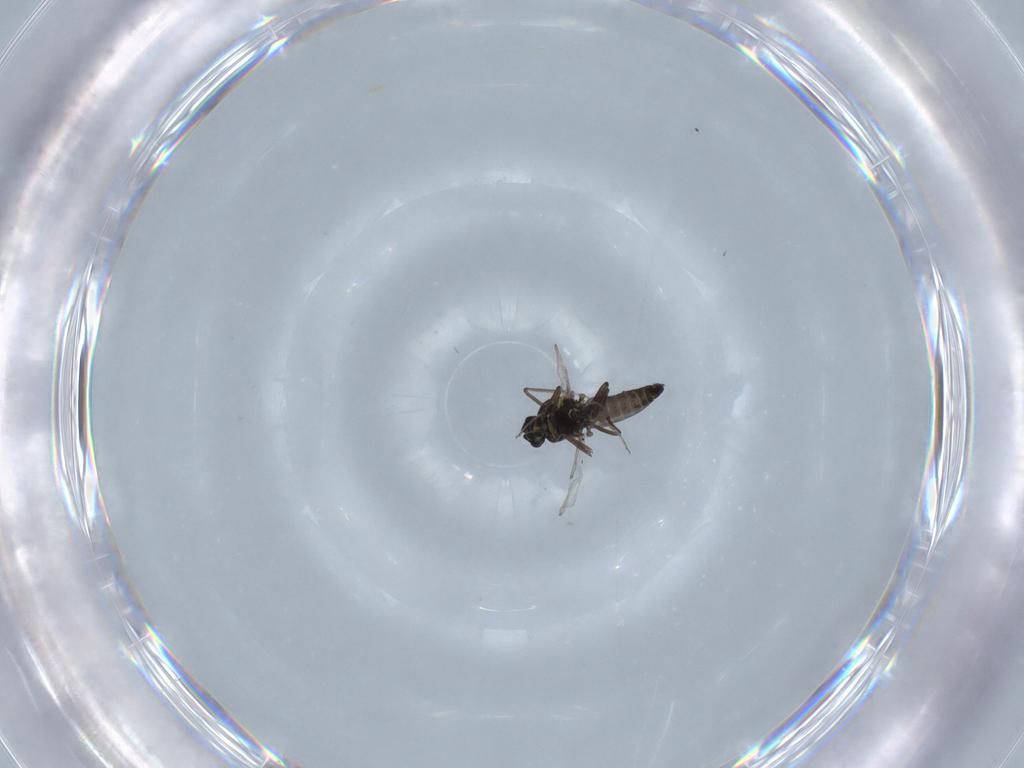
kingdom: Animalia
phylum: Arthropoda
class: Insecta
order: Diptera
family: Ceratopogonidae
